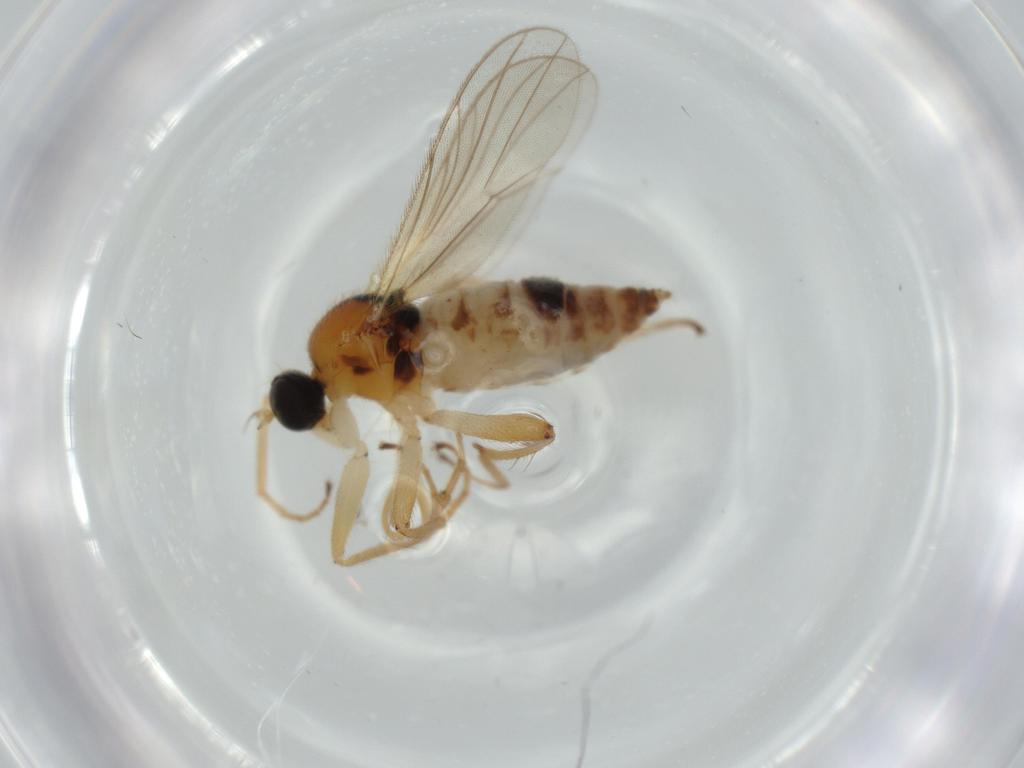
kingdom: Animalia
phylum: Arthropoda
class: Insecta
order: Diptera
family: Hybotidae
